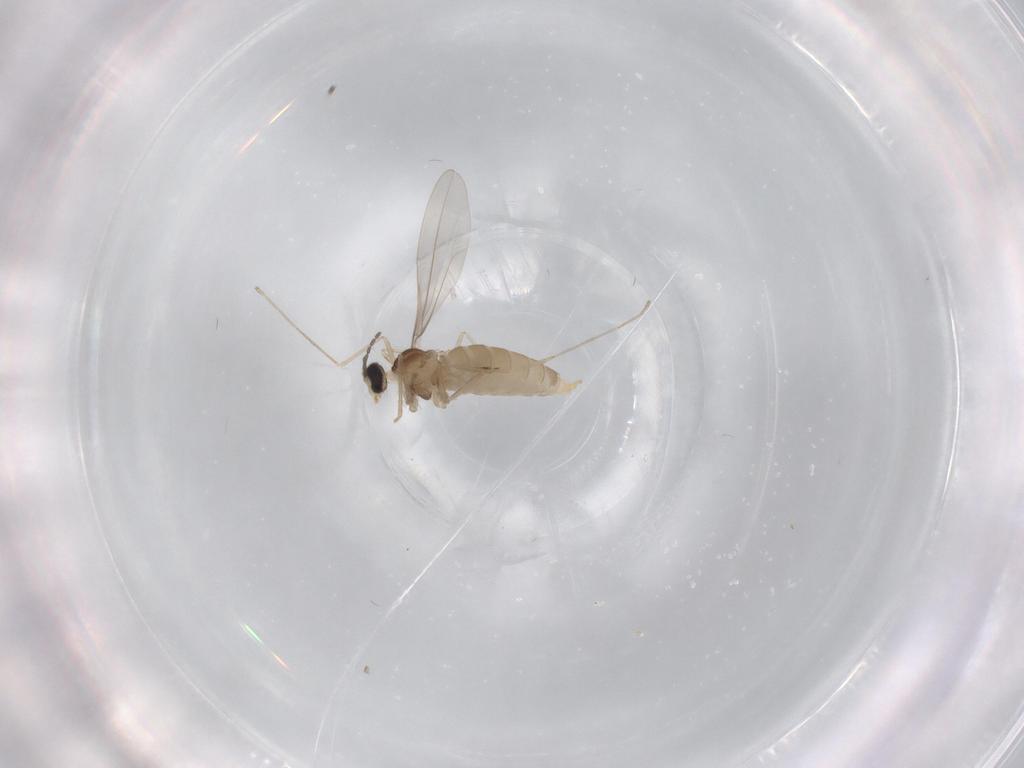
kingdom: Animalia
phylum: Arthropoda
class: Insecta
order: Diptera
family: Cecidomyiidae
